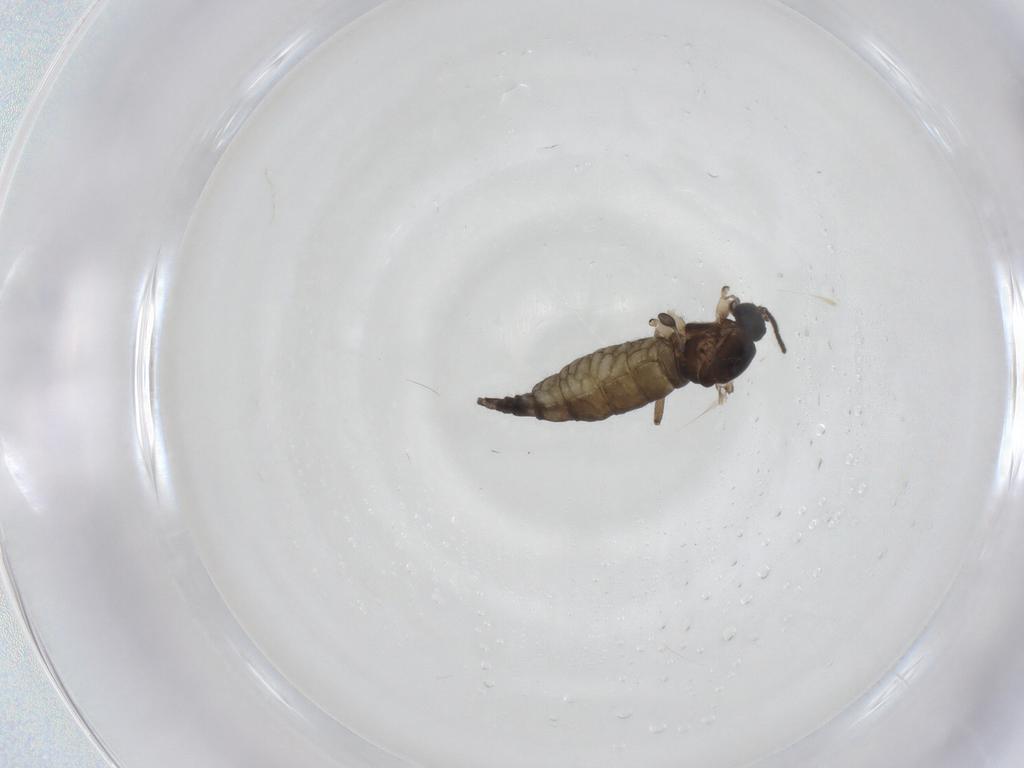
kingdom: Animalia
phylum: Arthropoda
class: Insecta
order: Diptera
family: Sciaridae
